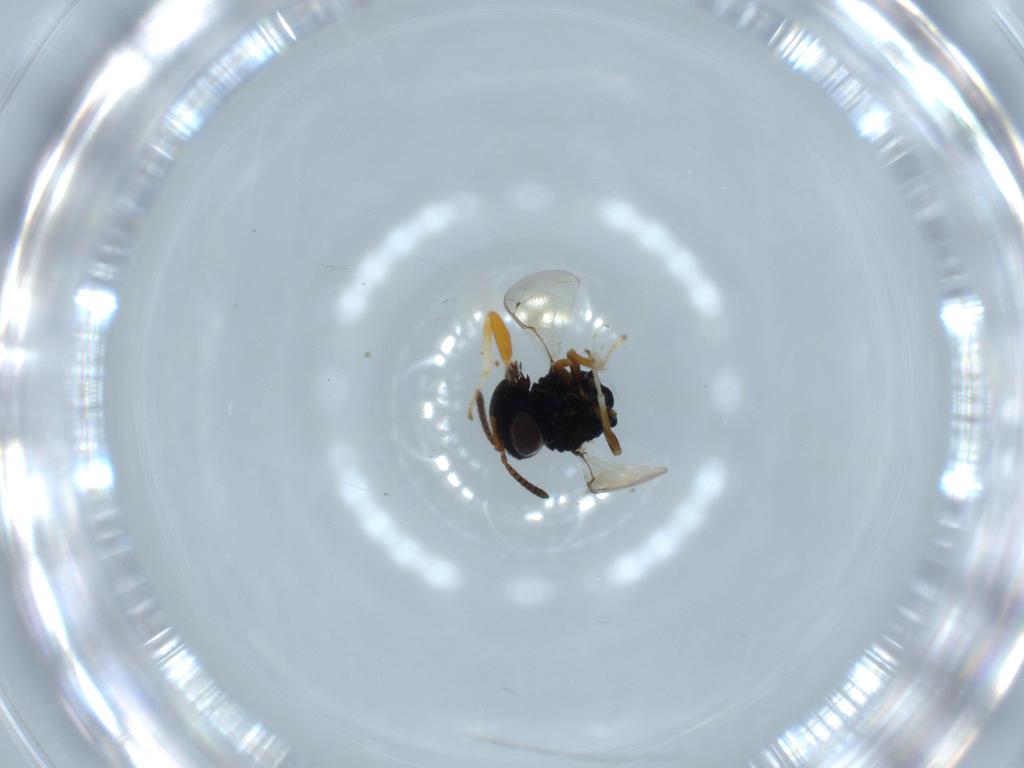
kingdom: Animalia
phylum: Arthropoda
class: Insecta
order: Hymenoptera
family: Pteromalidae
